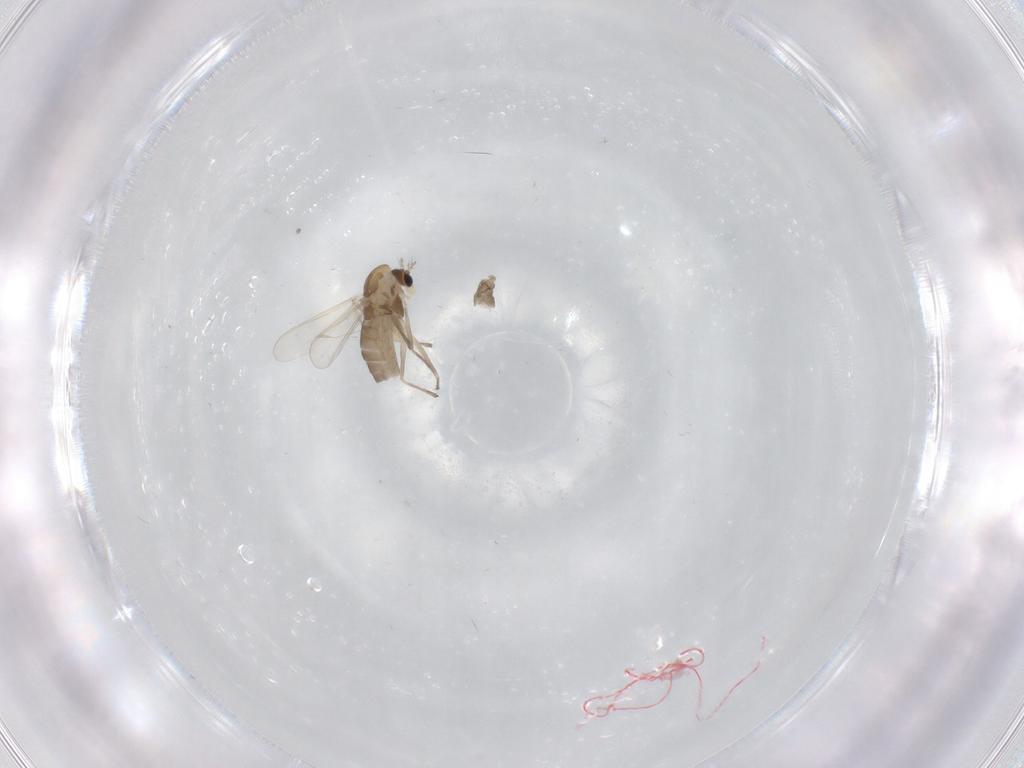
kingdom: Animalia
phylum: Arthropoda
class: Insecta
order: Diptera
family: Chironomidae
